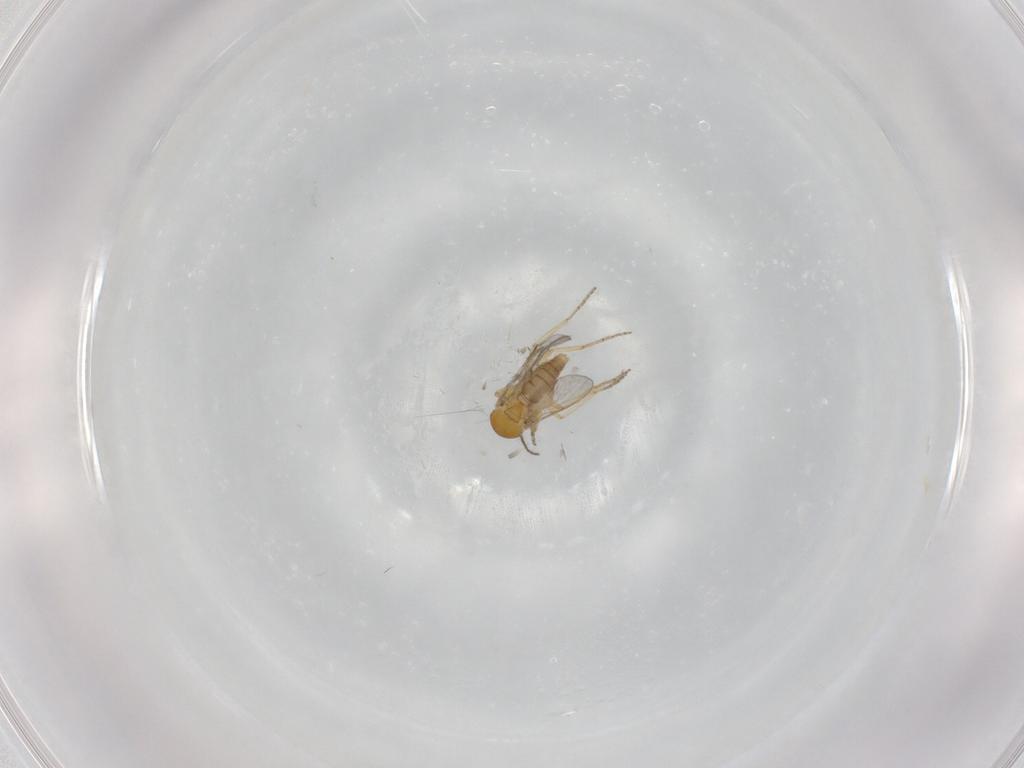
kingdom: Animalia
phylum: Arthropoda
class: Insecta
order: Diptera
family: Ceratopogonidae
